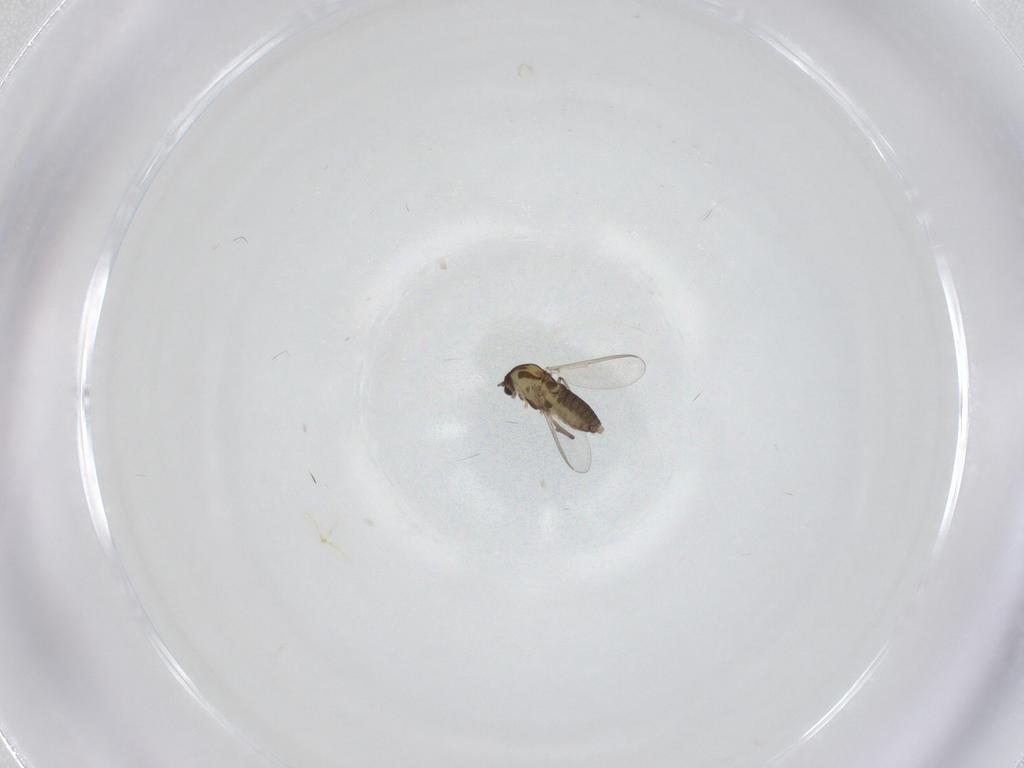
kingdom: Animalia
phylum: Arthropoda
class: Insecta
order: Diptera
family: Chironomidae
